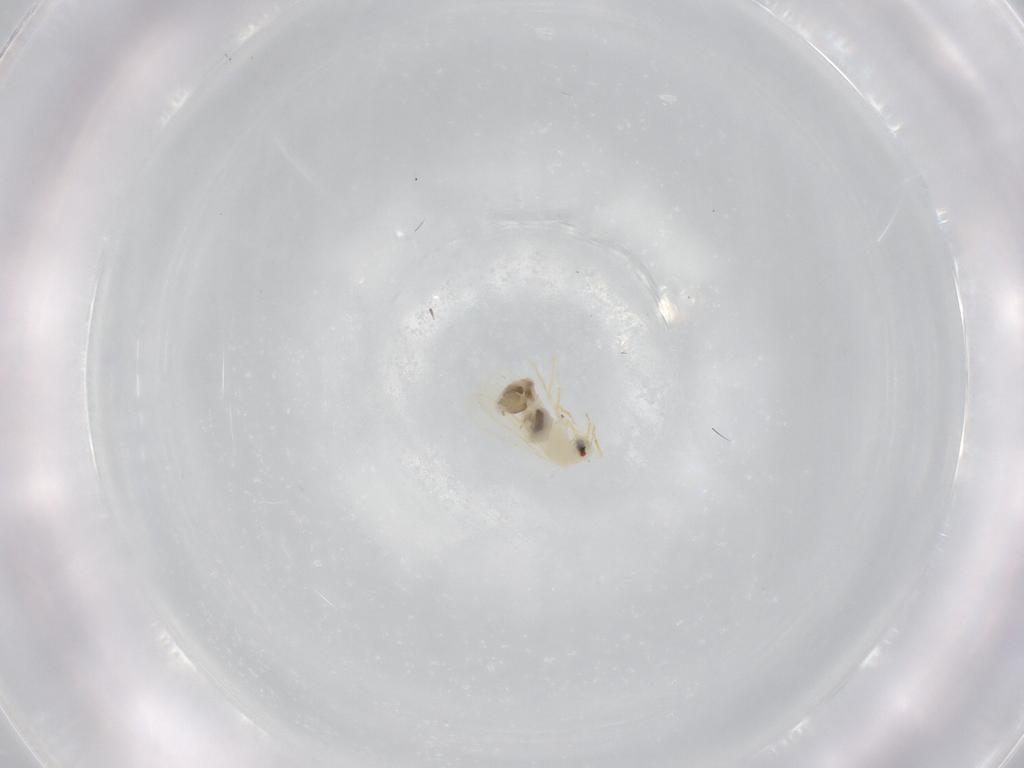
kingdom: Animalia
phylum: Arthropoda
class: Insecta
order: Hemiptera
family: Aleyrodidae
